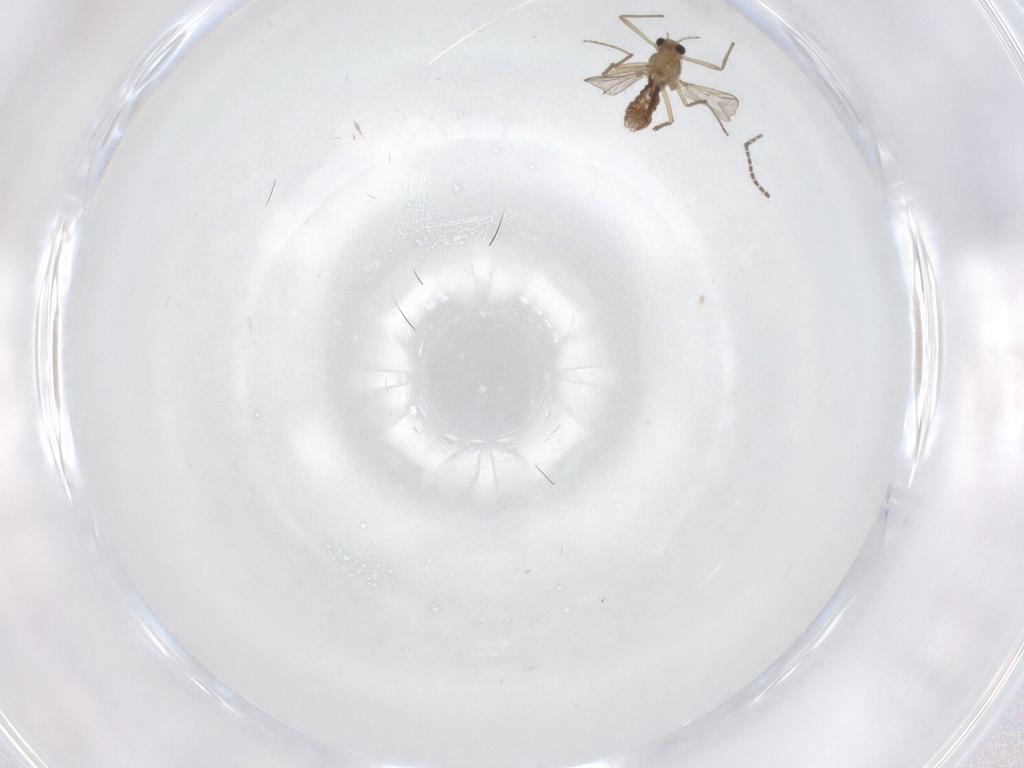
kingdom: Animalia
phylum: Arthropoda
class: Insecta
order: Diptera
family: Chironomidae
